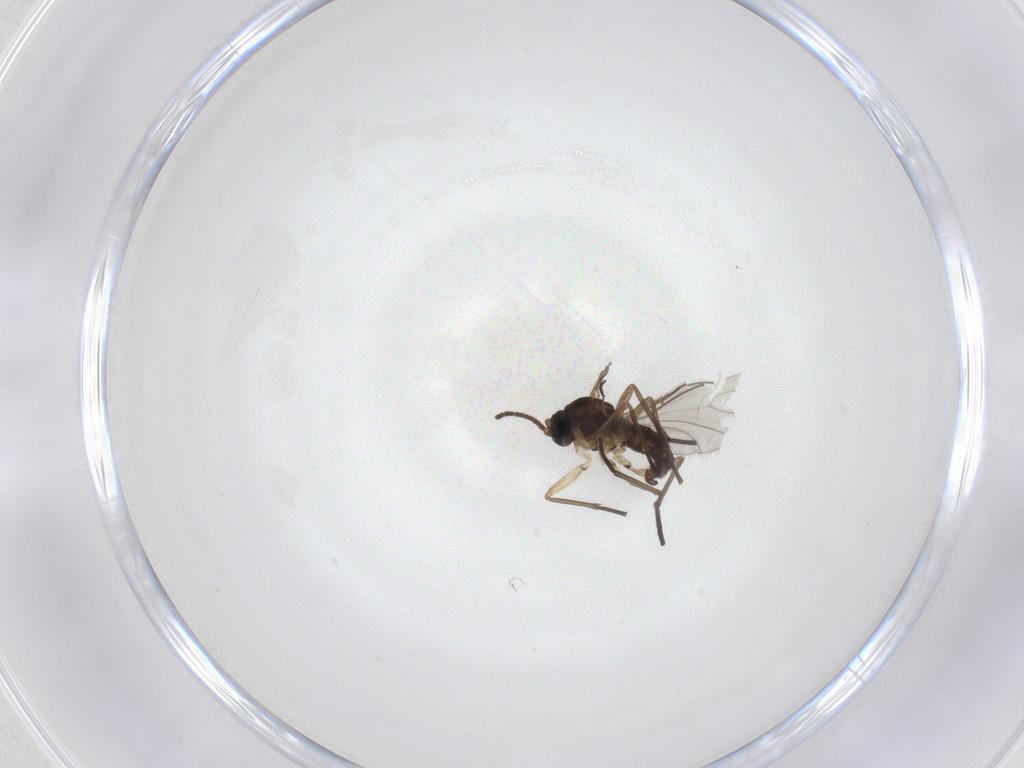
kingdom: Animalia
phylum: Arthropoda
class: Insecta
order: Diptera
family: Sciaridae
